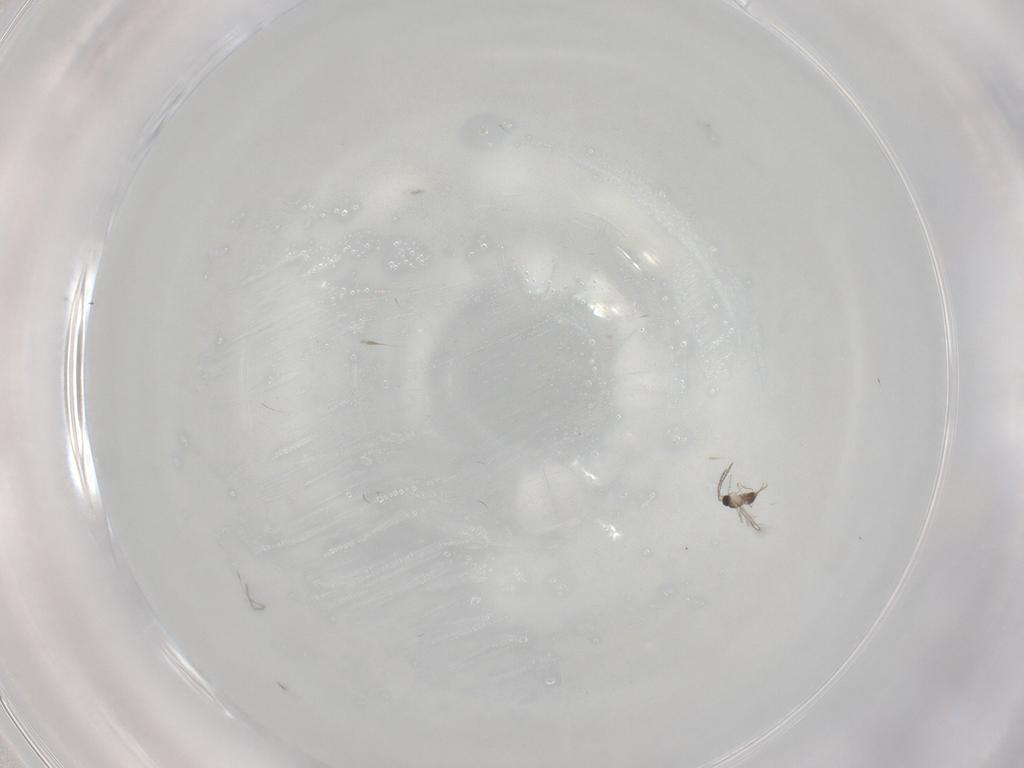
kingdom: Animalia
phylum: Arthropoda
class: Insecta
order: Hymenoptera
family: Mymaridae
